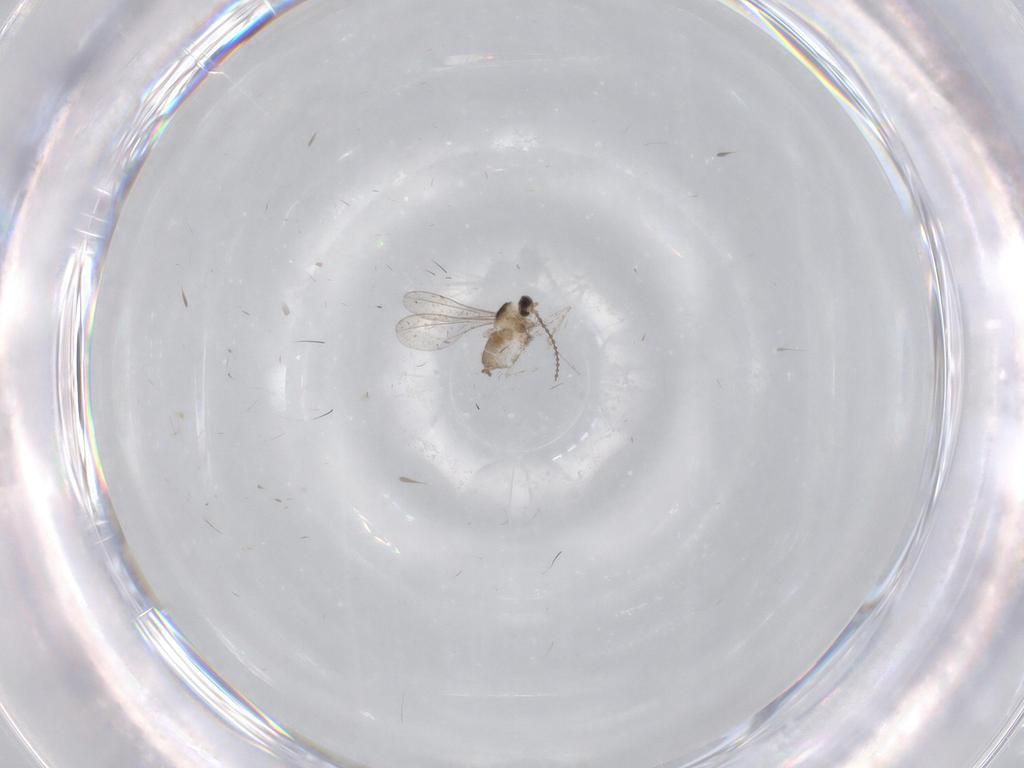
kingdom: Animalia
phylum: Arthropoda
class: Insecta
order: Diptera
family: Cecidomyiidae
